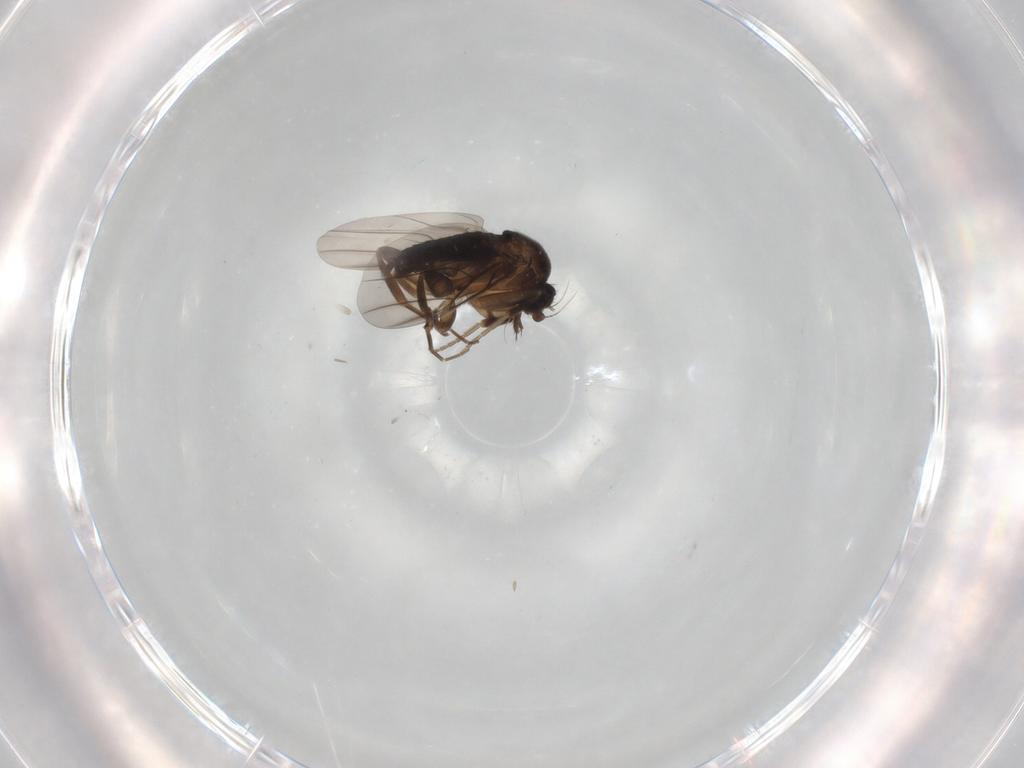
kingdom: Animalia
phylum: Arthropoda
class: Insecta
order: Diptera
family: Phoridae
